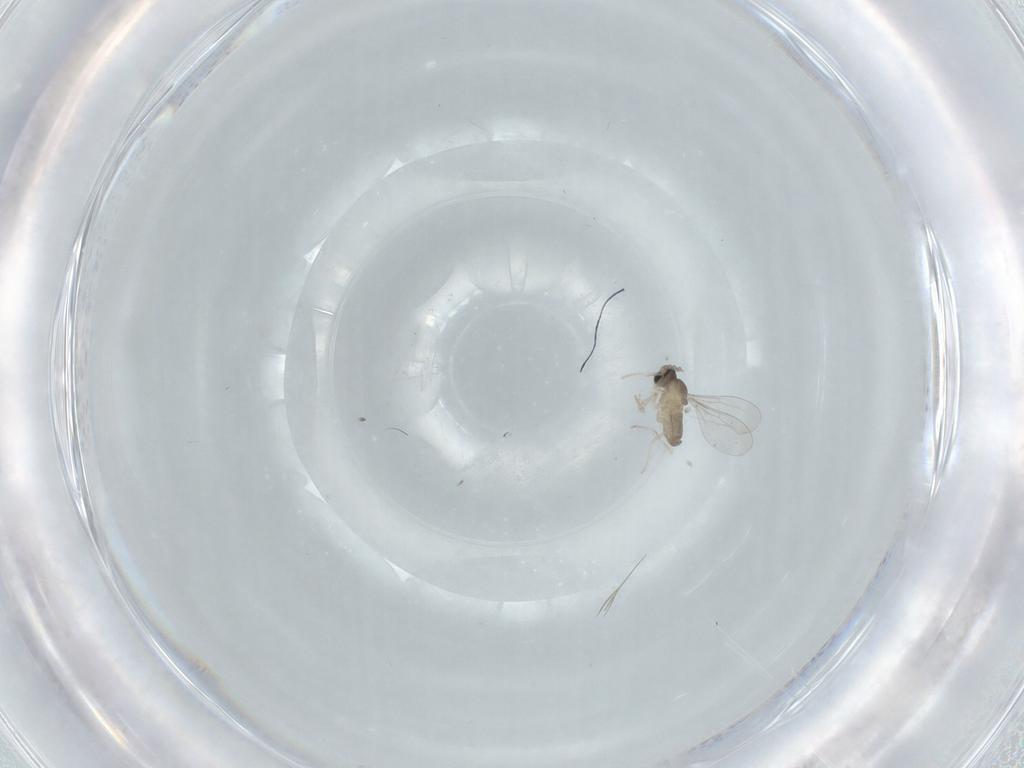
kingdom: Animalia
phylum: Arthropoda
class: Insecta
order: Diptera
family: Cecidomyiidae
